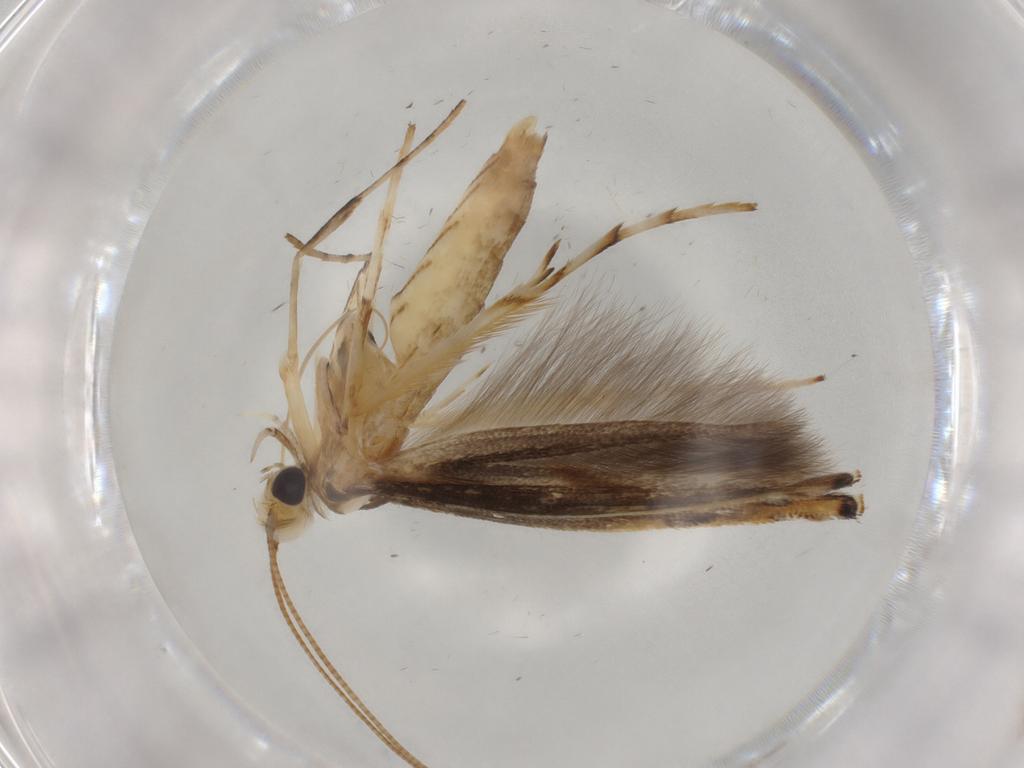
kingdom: Animalia
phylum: Arthropoda
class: Insecta
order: Lepidoptera
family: Gracillariidae
